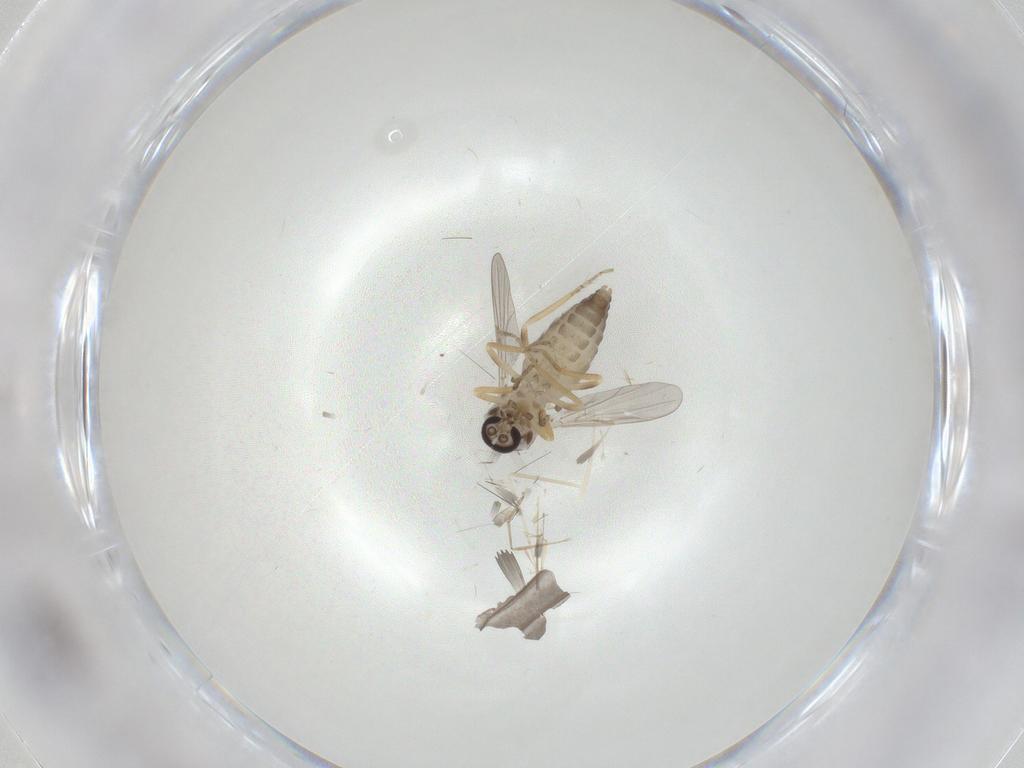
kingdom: Animalia
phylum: Arthropoda
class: Insecta
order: Diptera
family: Ceratopogonidae
